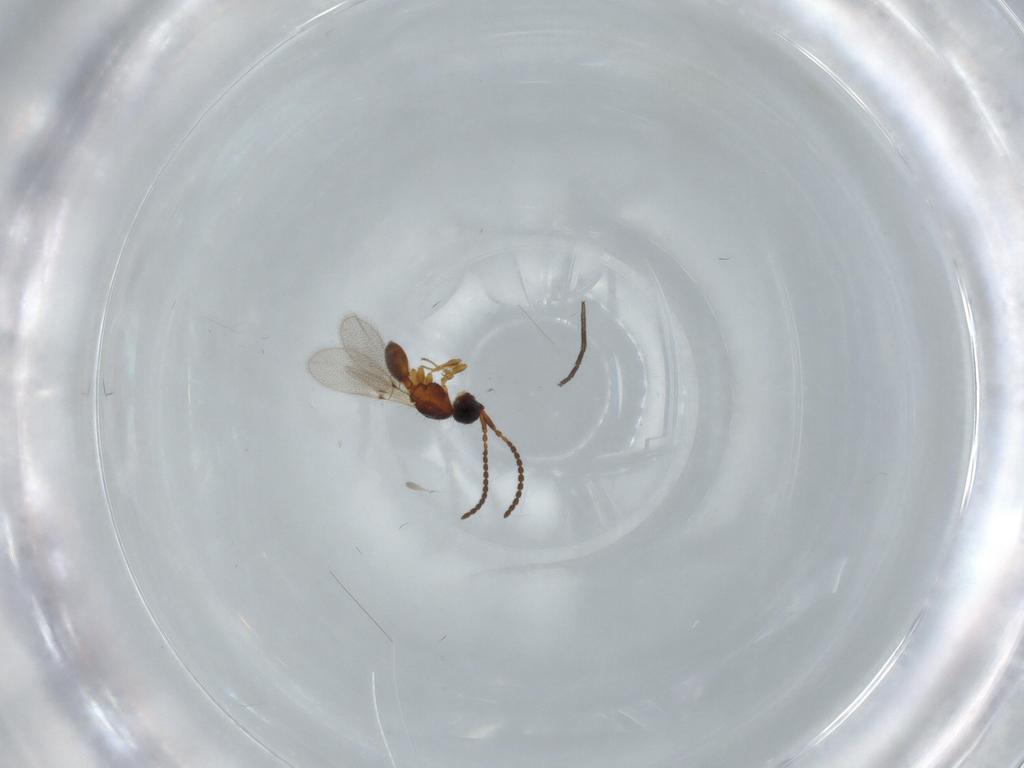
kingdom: Animalia
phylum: Arthropoda
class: Insecta
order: Hymenoptera
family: Diapriidae
